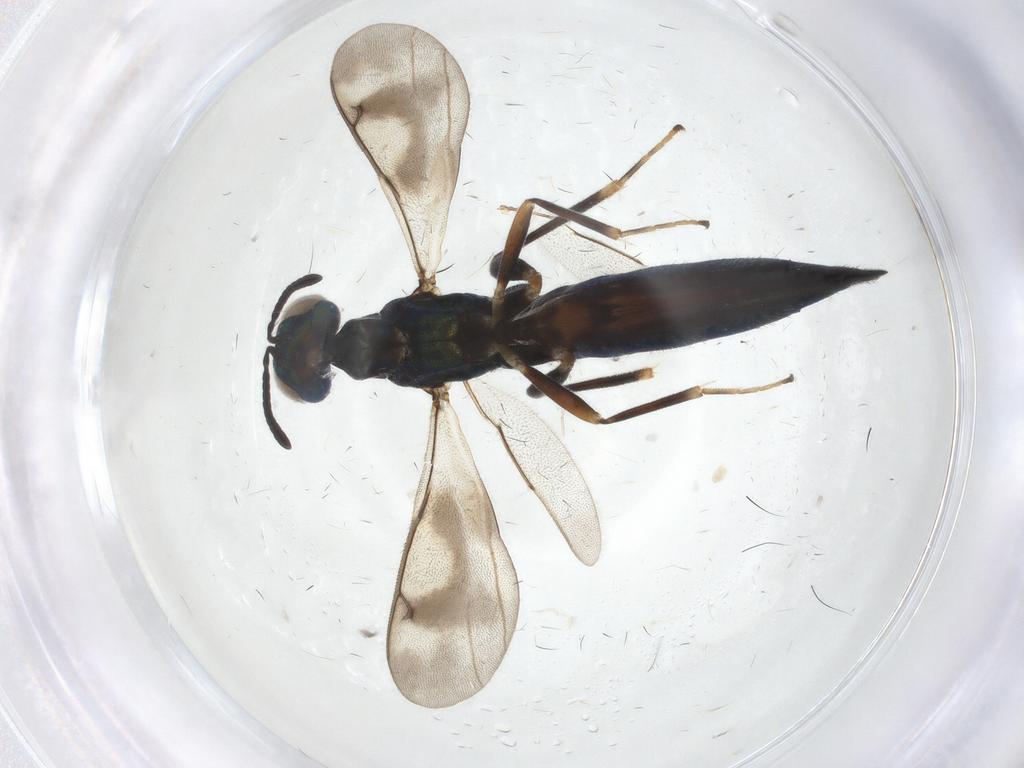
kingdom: Animalia
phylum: Arthropoda
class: Insecta
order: Hymenoptera
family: Eulophidae
